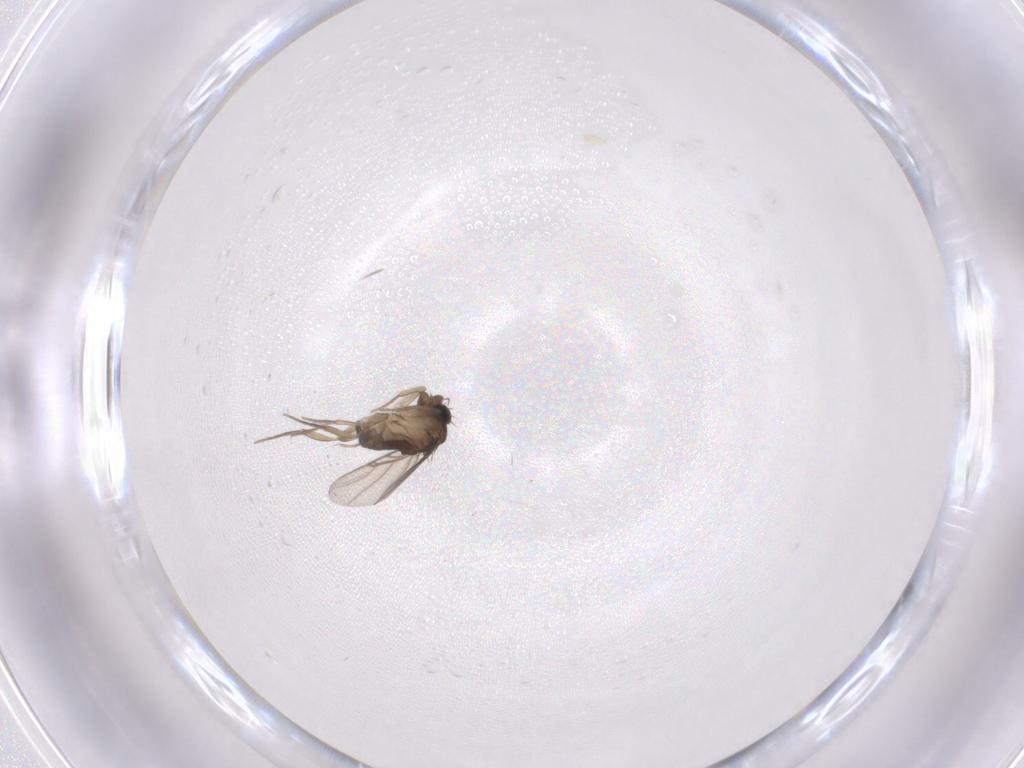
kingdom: Animalia
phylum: Arthropoda
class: Insecta
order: Diptera
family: Phoridae
